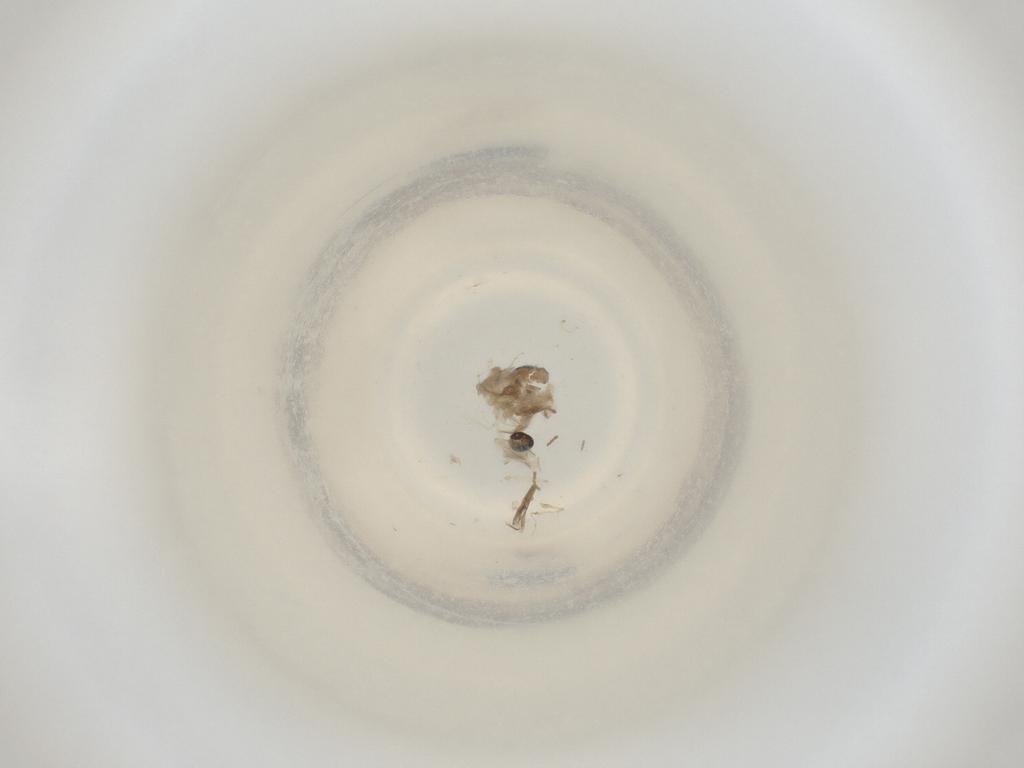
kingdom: Animalia
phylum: Arthropoda
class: Insecta
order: Diptera
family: Cecidomyiidae
